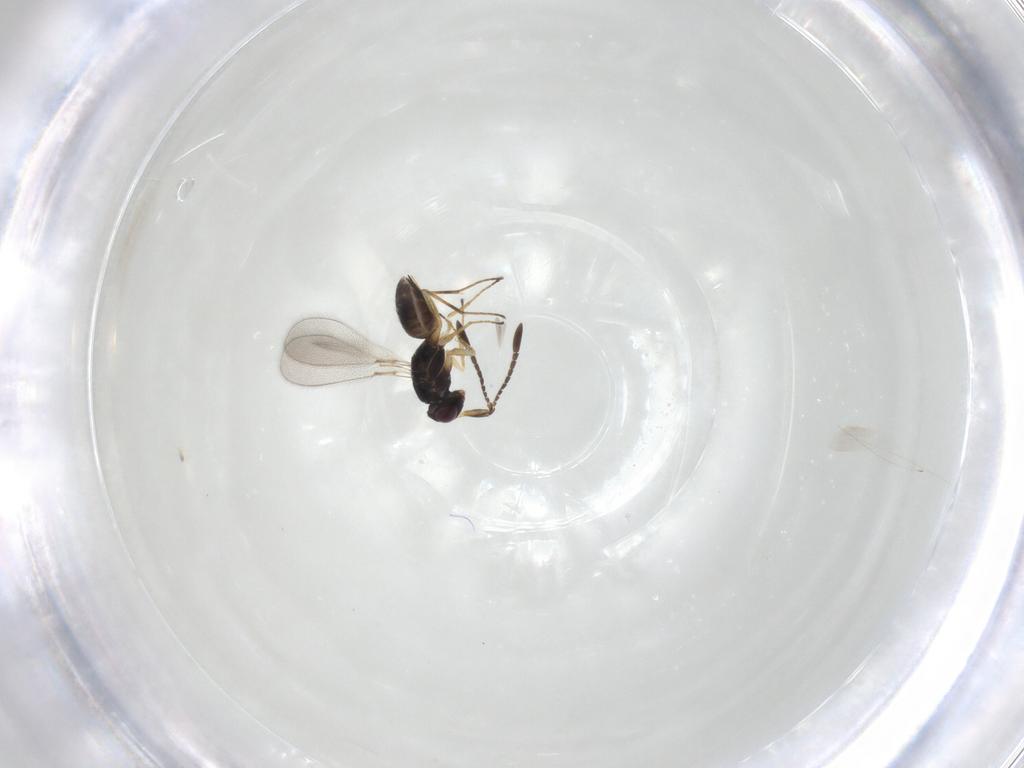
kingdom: Animalia
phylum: Arthropoda
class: Insecta
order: Hymenoptera
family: Mymaridae
